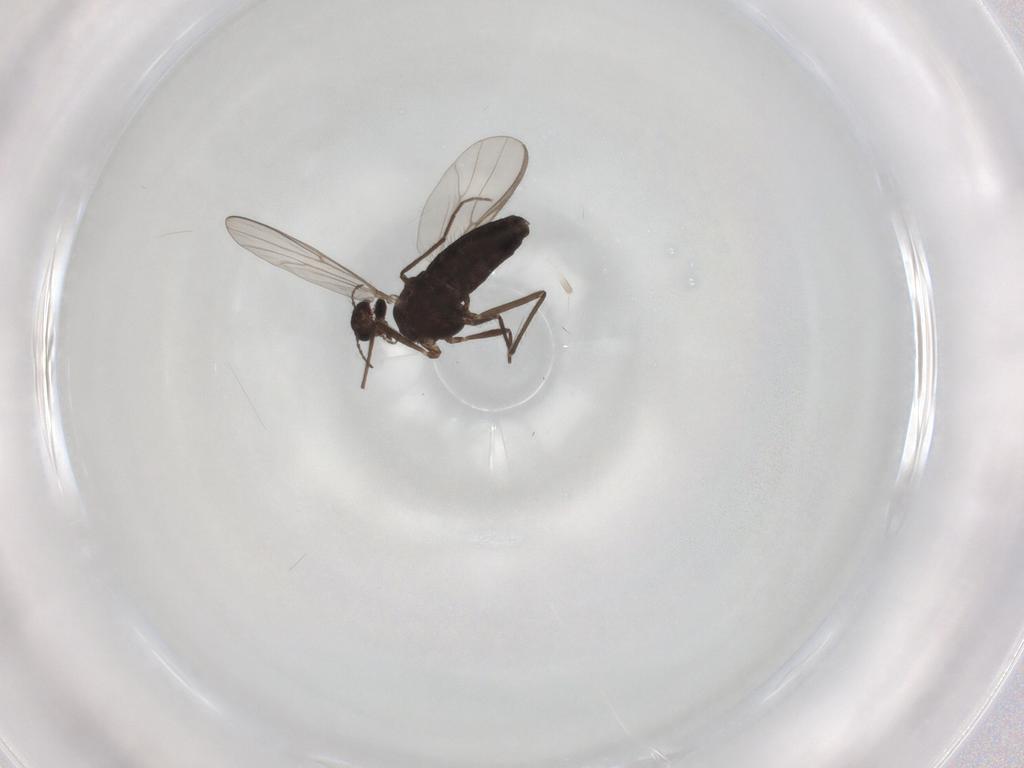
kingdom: Animalia
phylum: Arthropoda
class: Insecta
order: Diptera
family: Chironomidae
